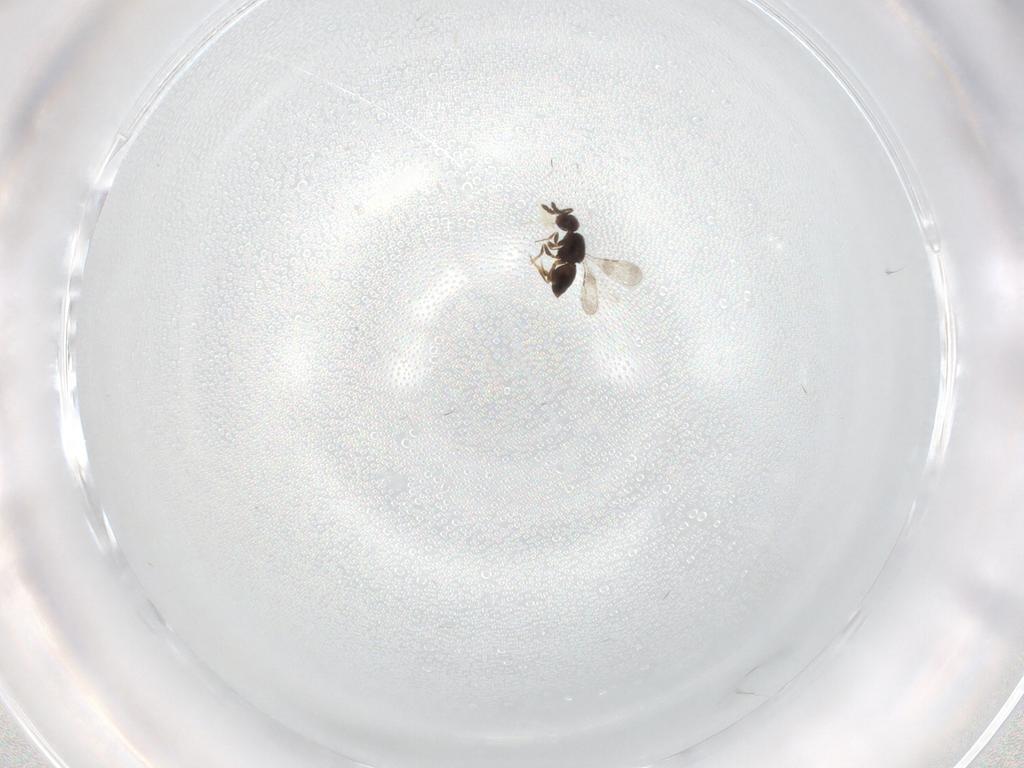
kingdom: Animalia
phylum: Arthropoda
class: Insecta
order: Hymenoptera
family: Diapriidae
